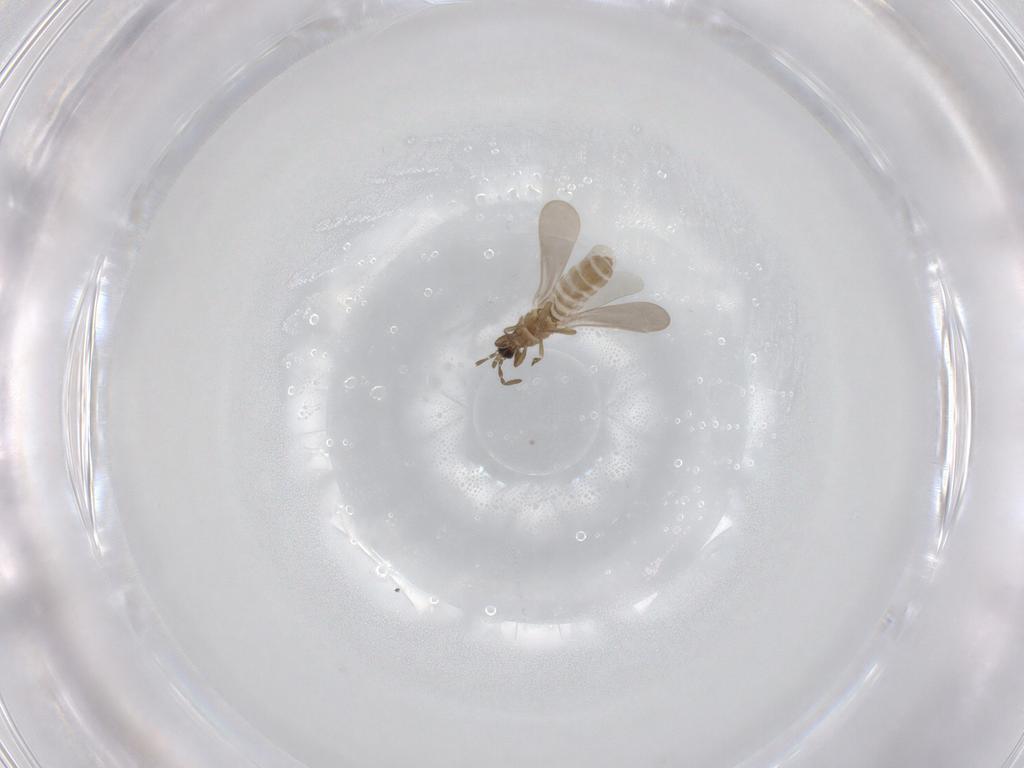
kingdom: Animalia
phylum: Arthropoda
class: Insecta
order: Hemiptera
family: Enicocephalidae
